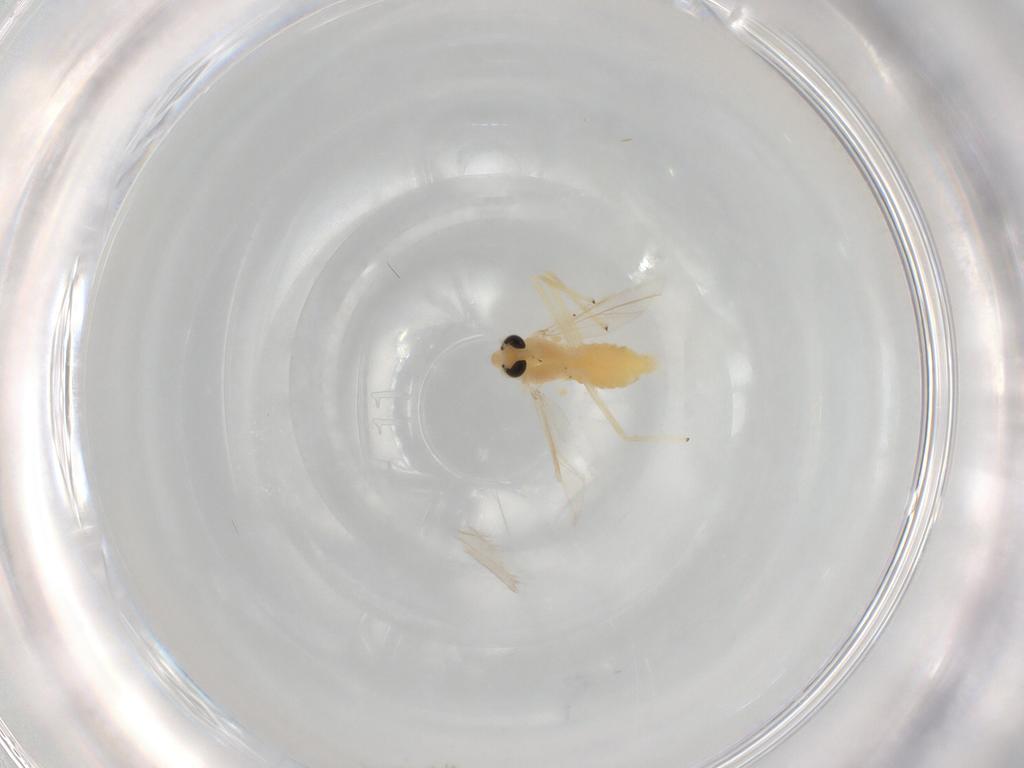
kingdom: Animalia
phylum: Arthropoda
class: Insecta
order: Diptera
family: Chironomidae
